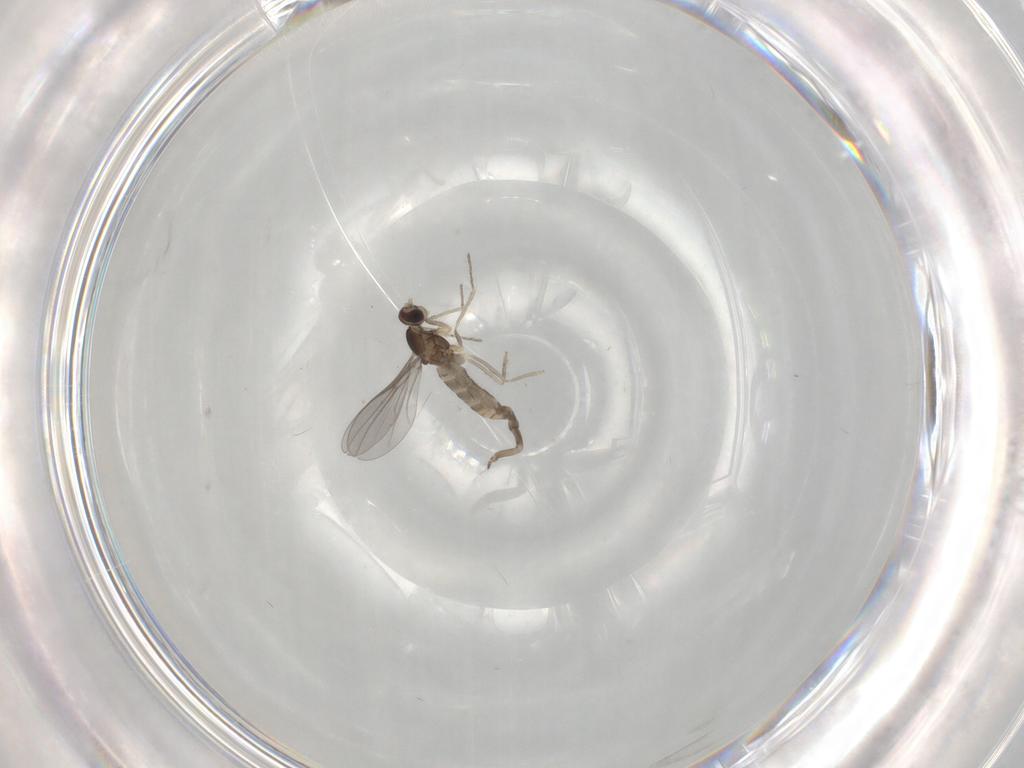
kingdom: Animalia
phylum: Arthropoda
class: Insecta
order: Diptera
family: Cecidomyiidae
